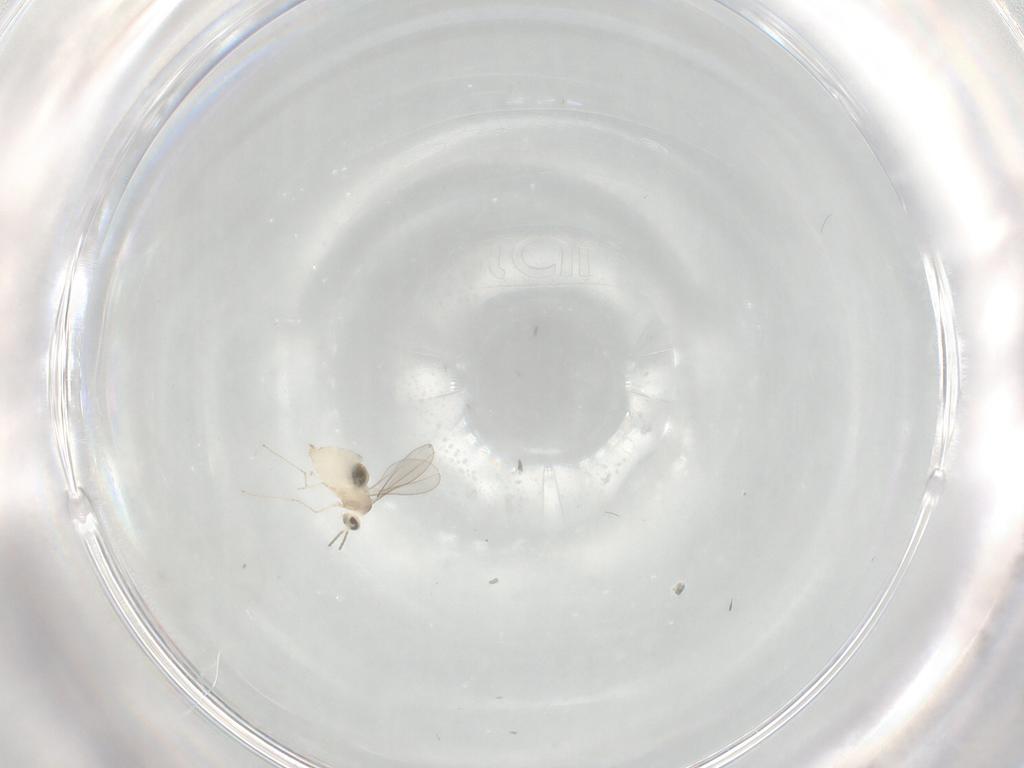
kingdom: Animalia
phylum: Arthropoda
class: Insecta
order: Diptera
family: Cecidomyiidae
